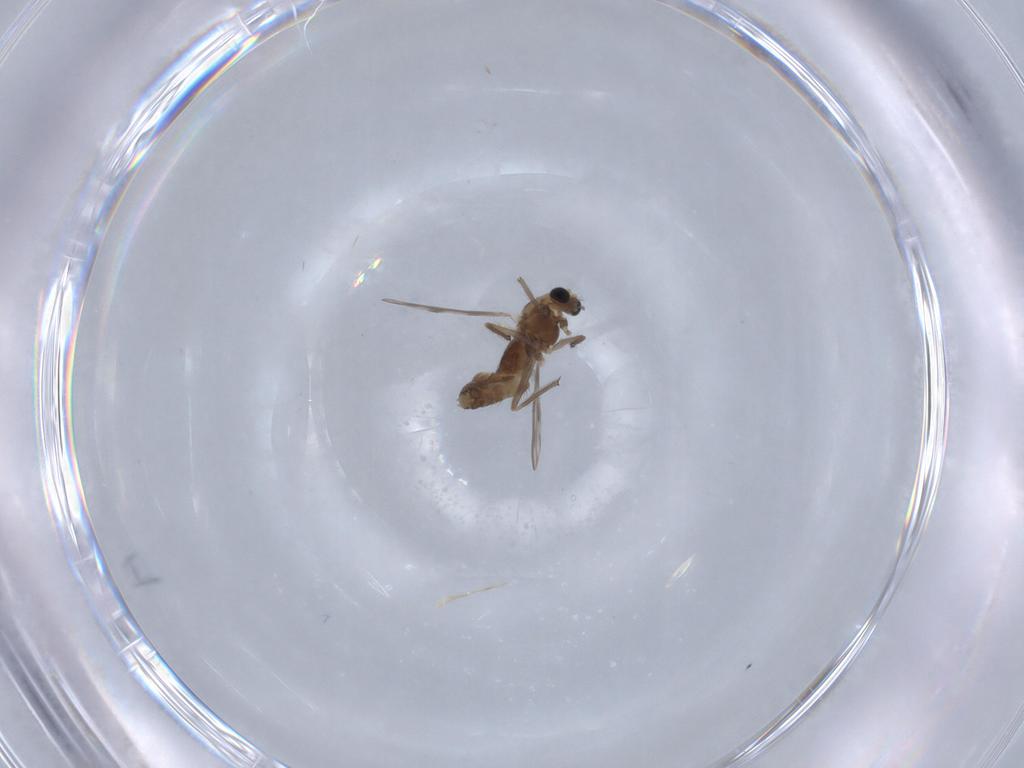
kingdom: Animalia
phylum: Arthropoda
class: Insecta
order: Diptera
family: Chironomidae
